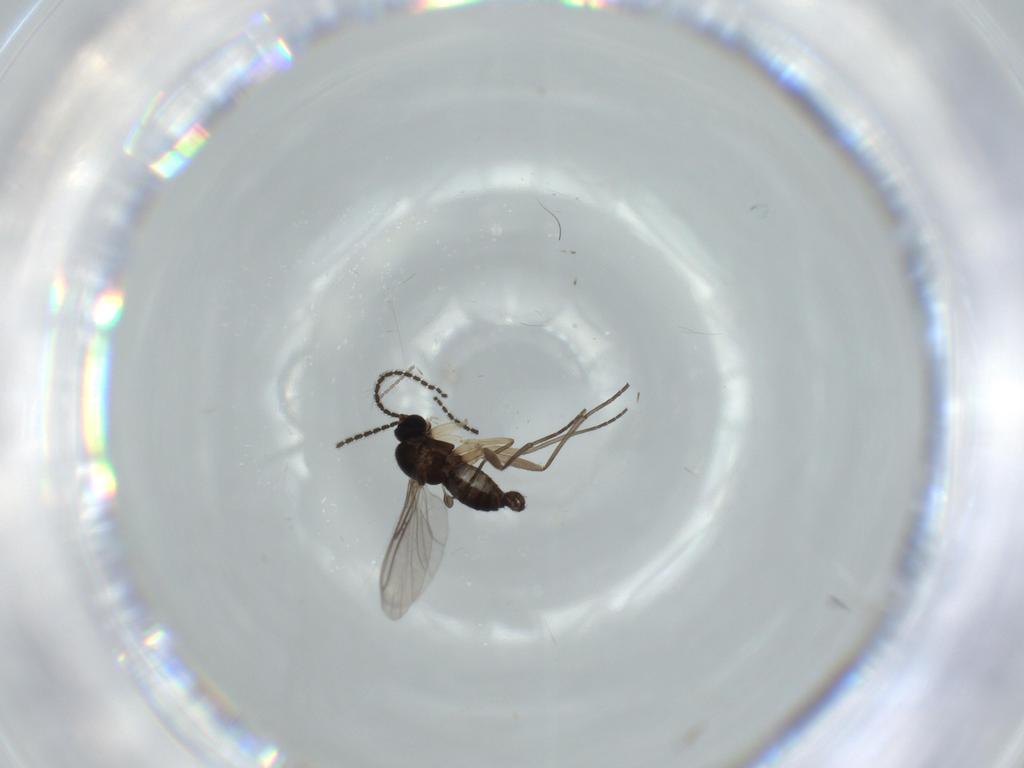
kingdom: Animalia
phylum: Arthropoda
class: Insecta
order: Diptera
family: Sciaridae
